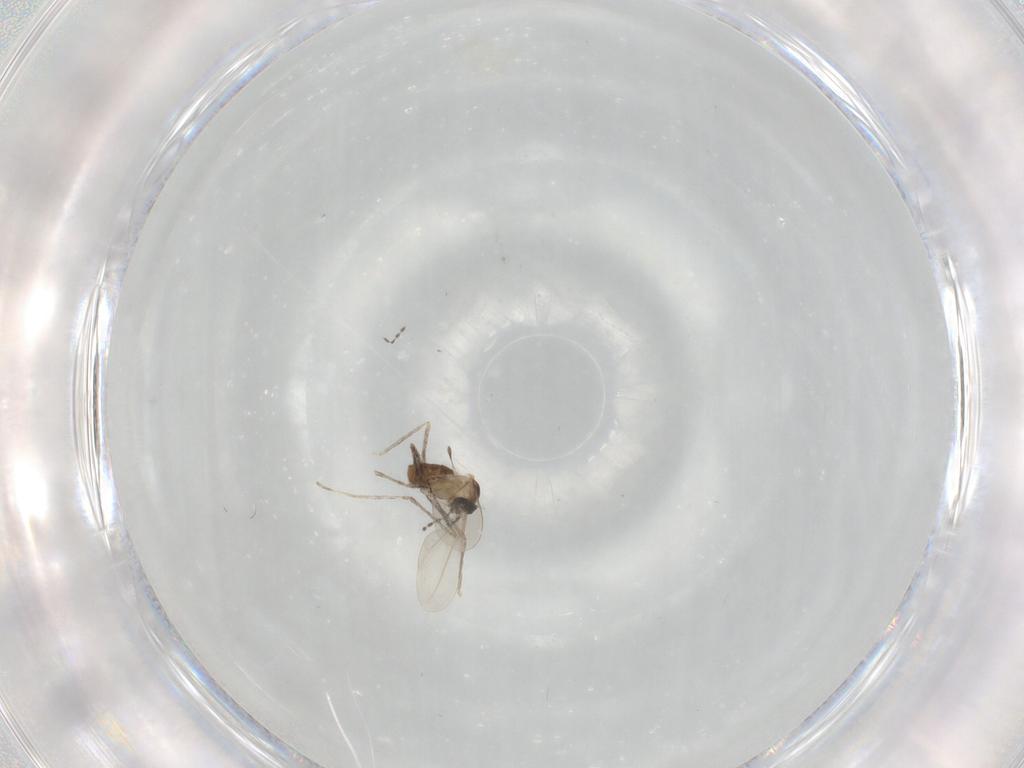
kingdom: Animalia
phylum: Arthropoda
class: Insecta
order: Diptera
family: Cecidomyiidae
